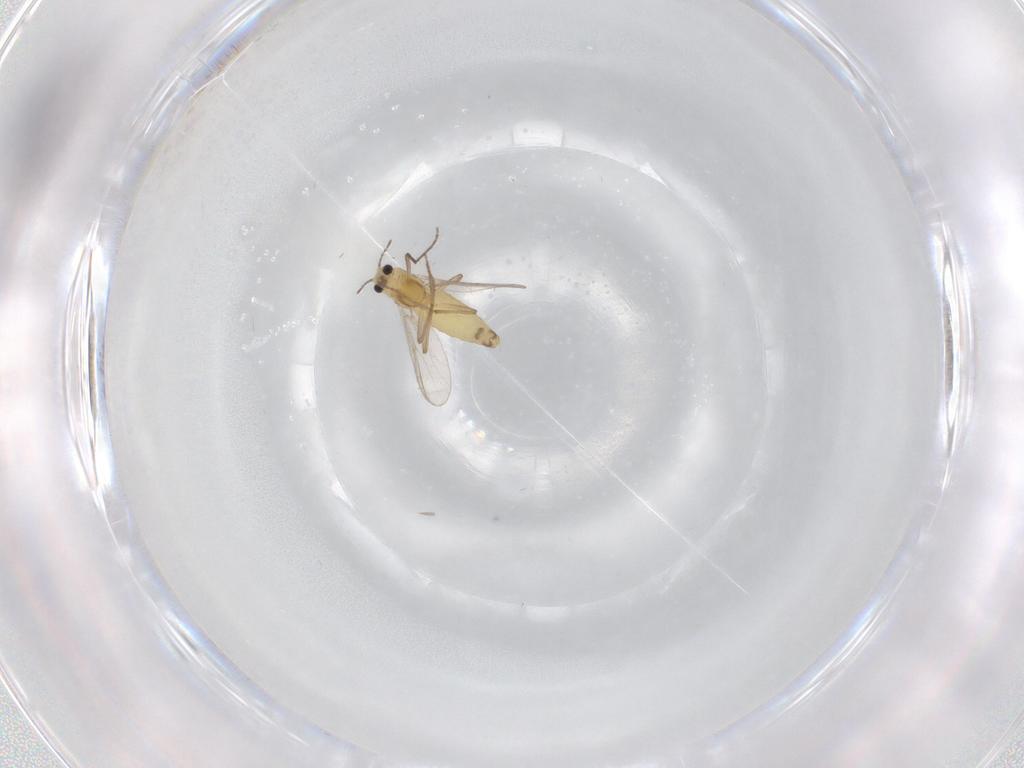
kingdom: Animalia
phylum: Arthropoda
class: Insecta
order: Diptera
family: Chironomidae
